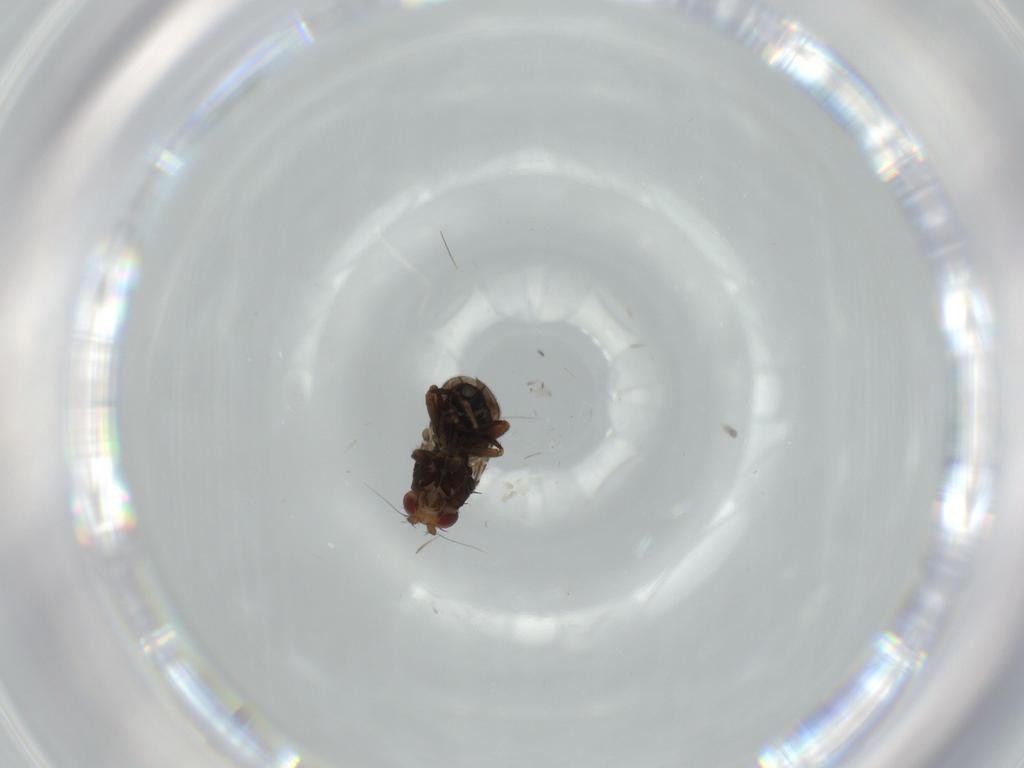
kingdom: Animalia
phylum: Arthropoda
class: Insecta
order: Diptera
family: Sphaeroceridae
